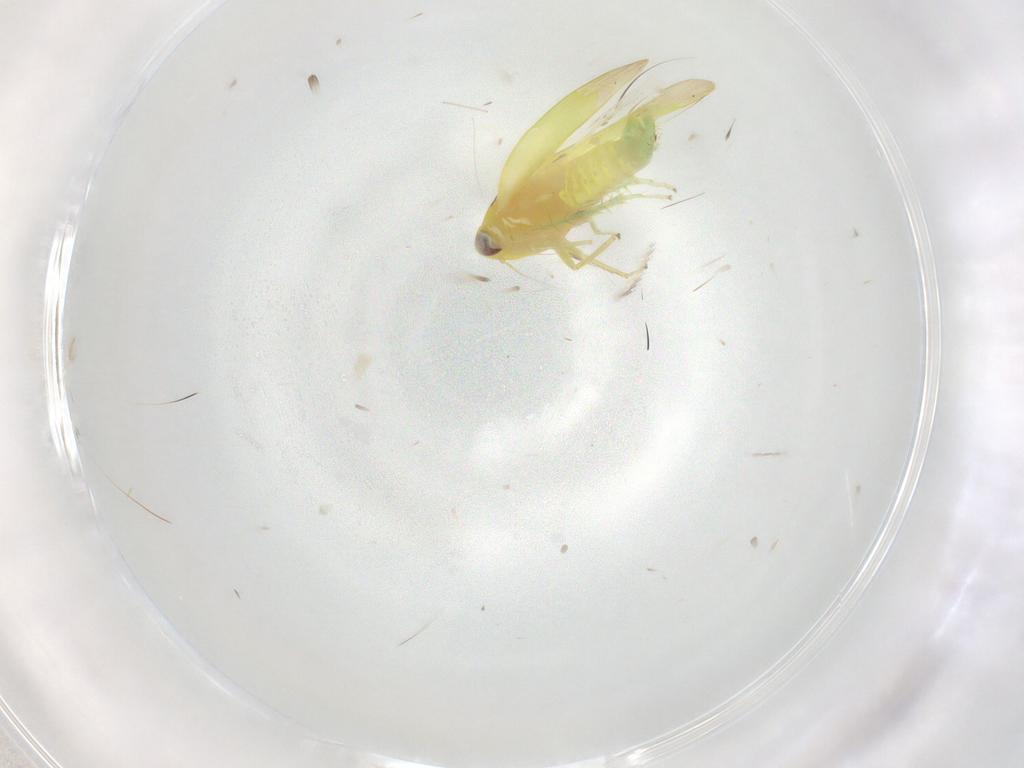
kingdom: Animalia
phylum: Arthropoda
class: Insecta
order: Hemiptera
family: Cicadellidae
